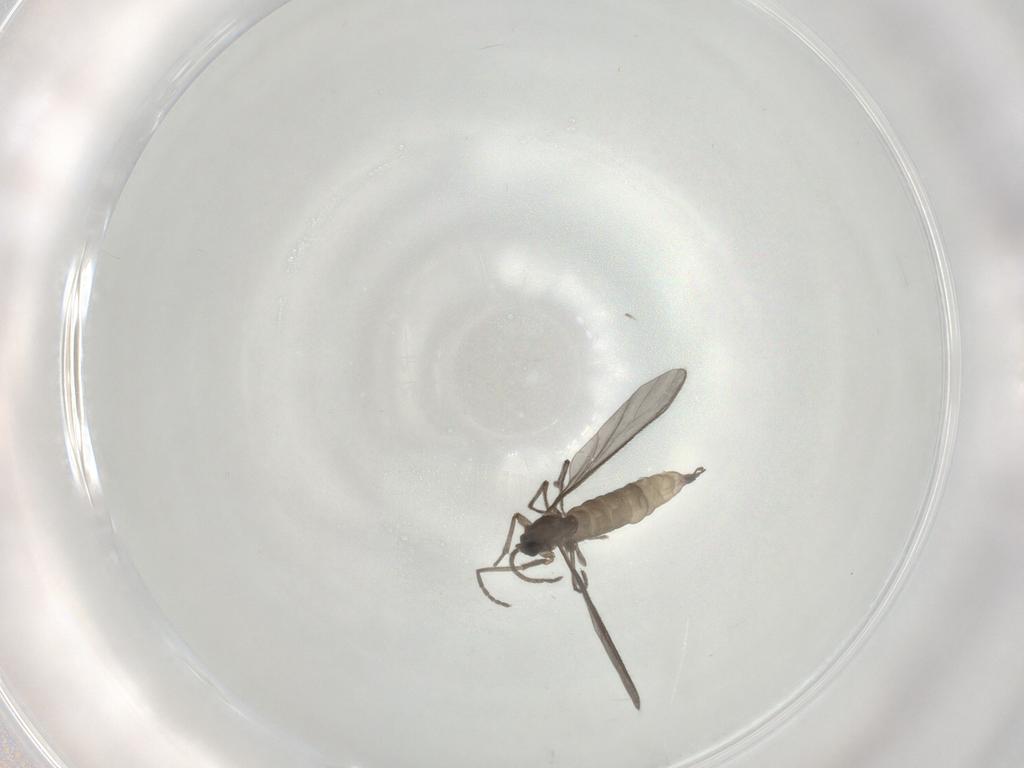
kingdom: Animalia
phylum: Arthropoda
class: Insecta
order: Diptera
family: Sciaridae
